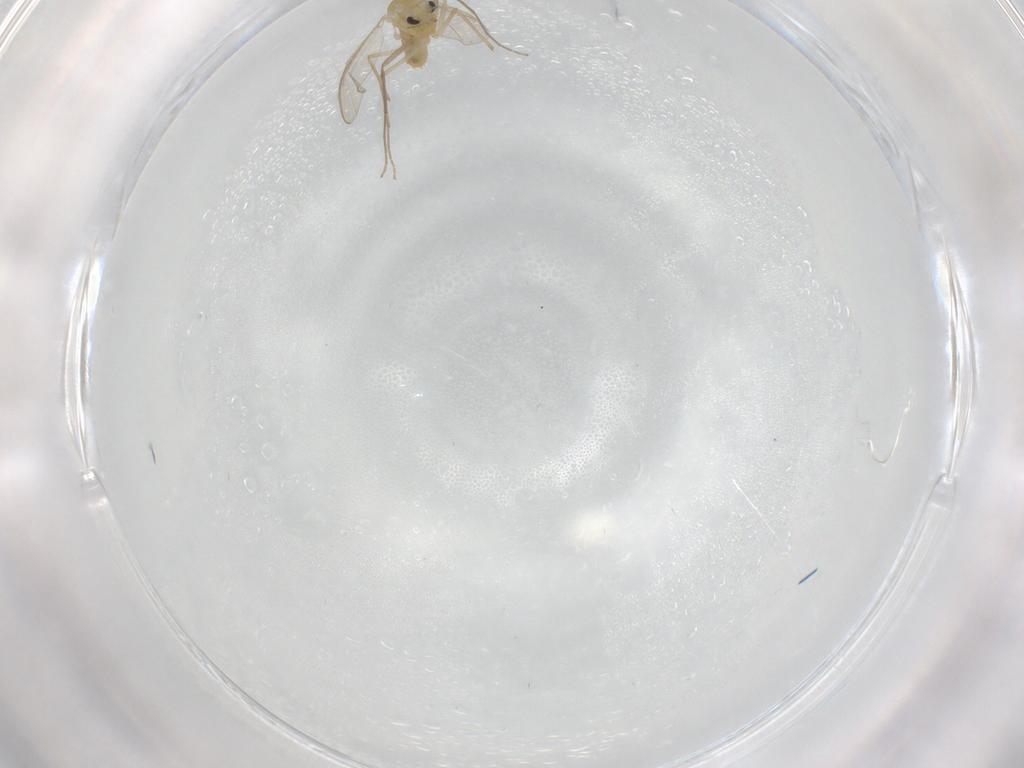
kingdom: Animalia
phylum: Arthropoda
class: Insecta
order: Diptera
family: Chironomidae
